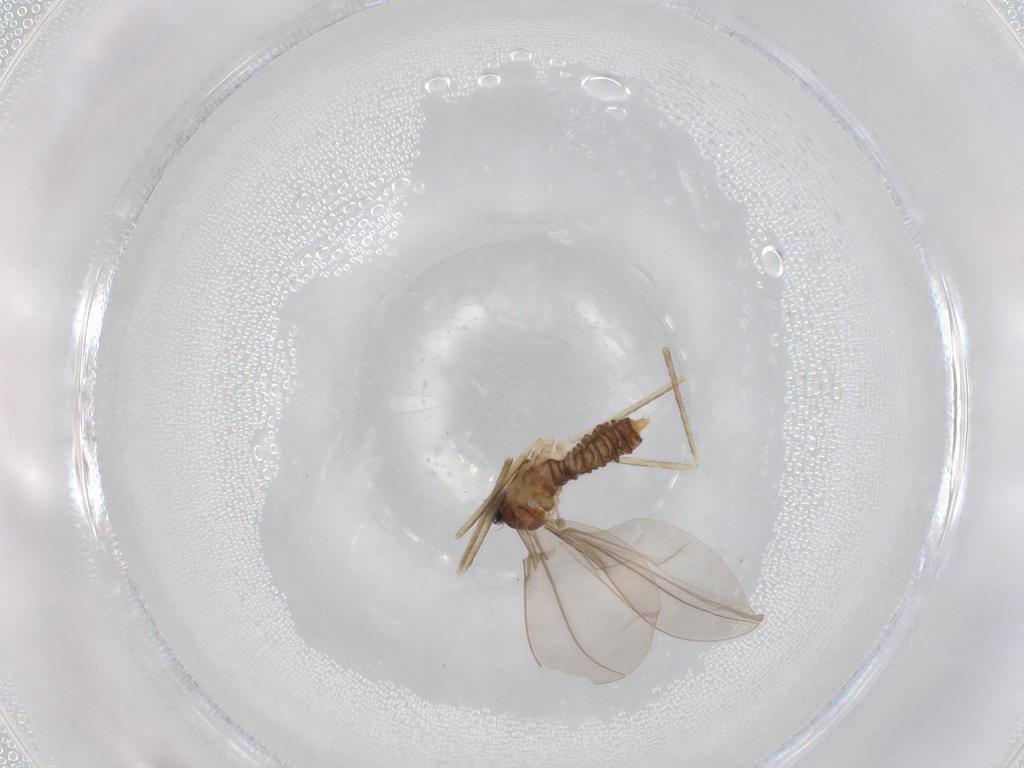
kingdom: Animalia
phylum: Arthropoda
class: Insecta
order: Diptera
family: Cecidomyiidae
